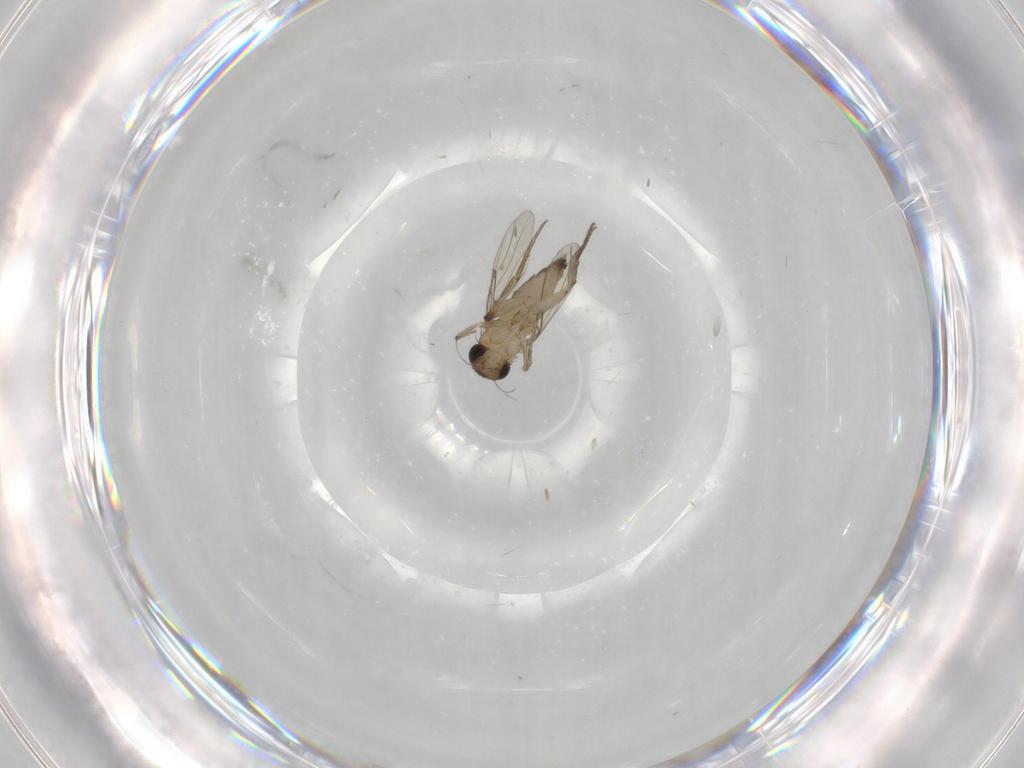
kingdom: Animalia
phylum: Arthropoda
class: Insecta
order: Diptera
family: Phoridae
